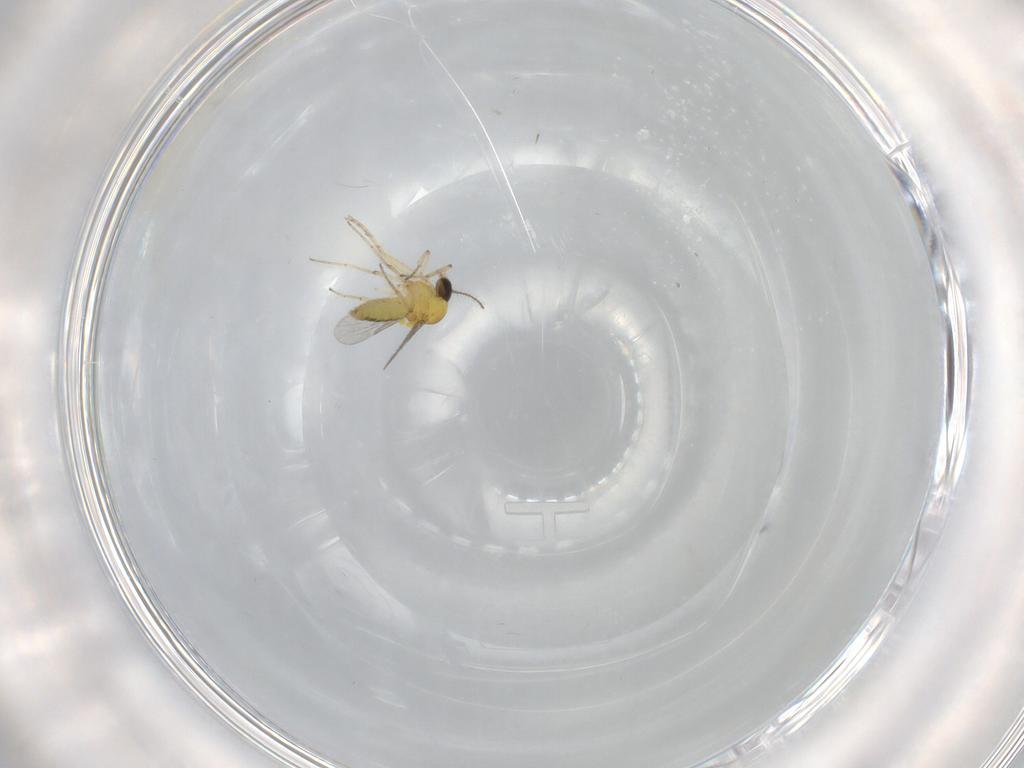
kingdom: Animalia
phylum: Arthropoda
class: Insecta
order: Diptera
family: Ceratopogonidae
